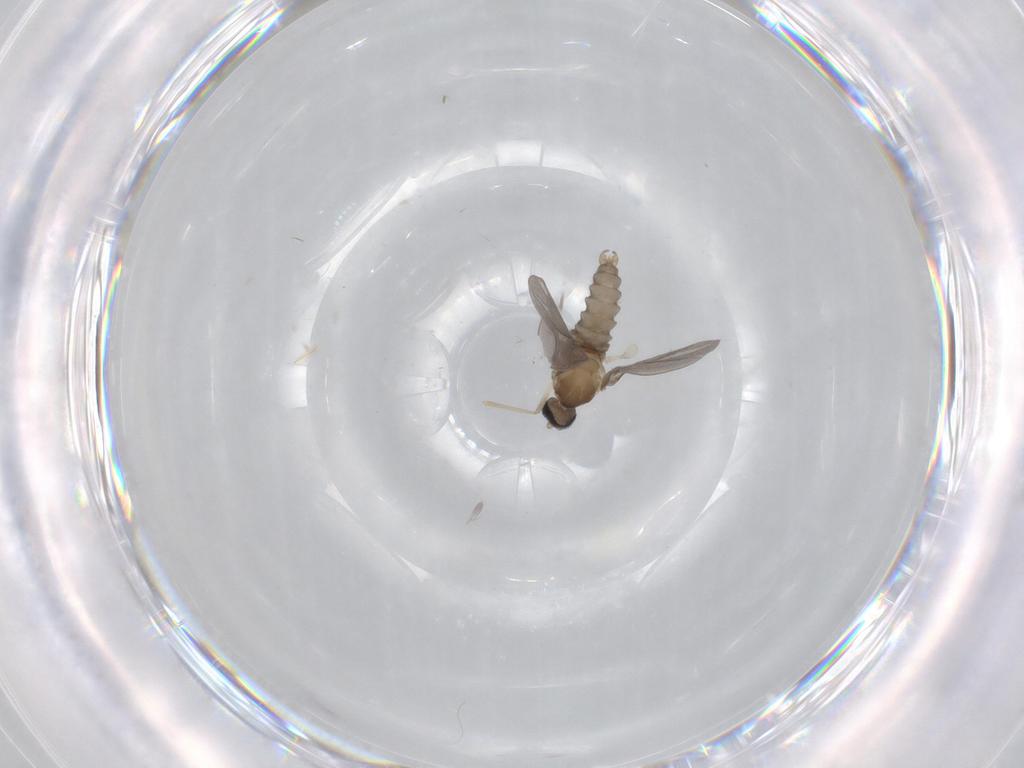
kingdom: Animalia
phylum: Arthropoda
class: Insecta
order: Diptera
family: Cecidomyiidae
